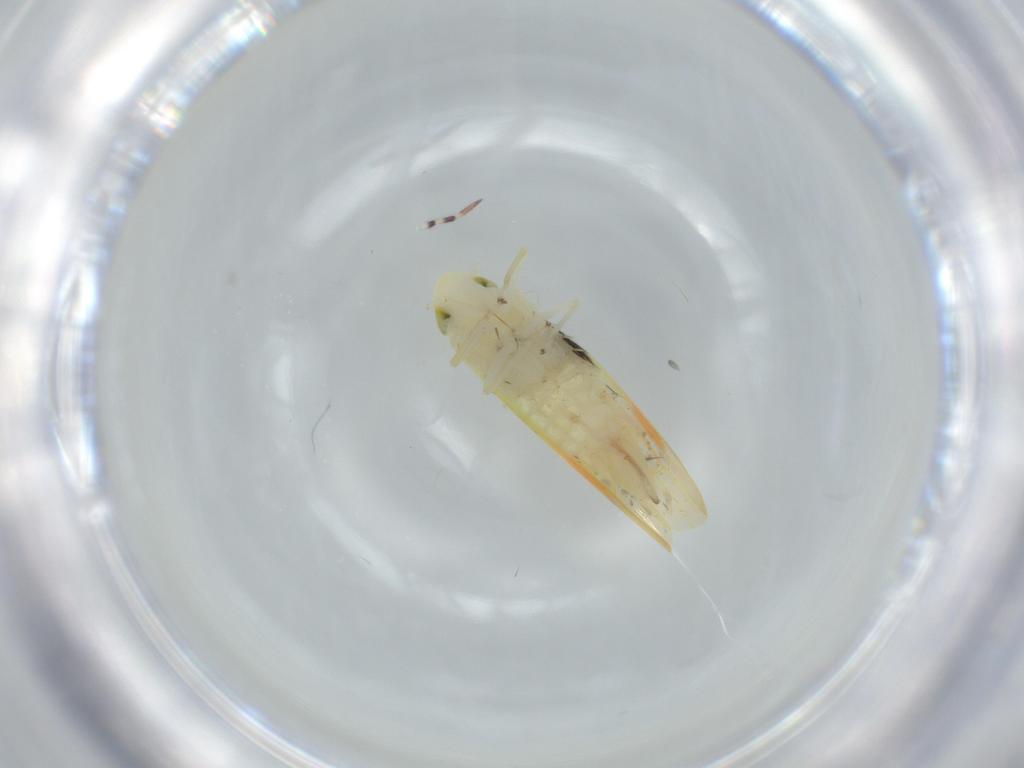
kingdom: Animalia
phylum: Arthropoda
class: Insecta
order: Hemiptera
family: Cicadellidae
